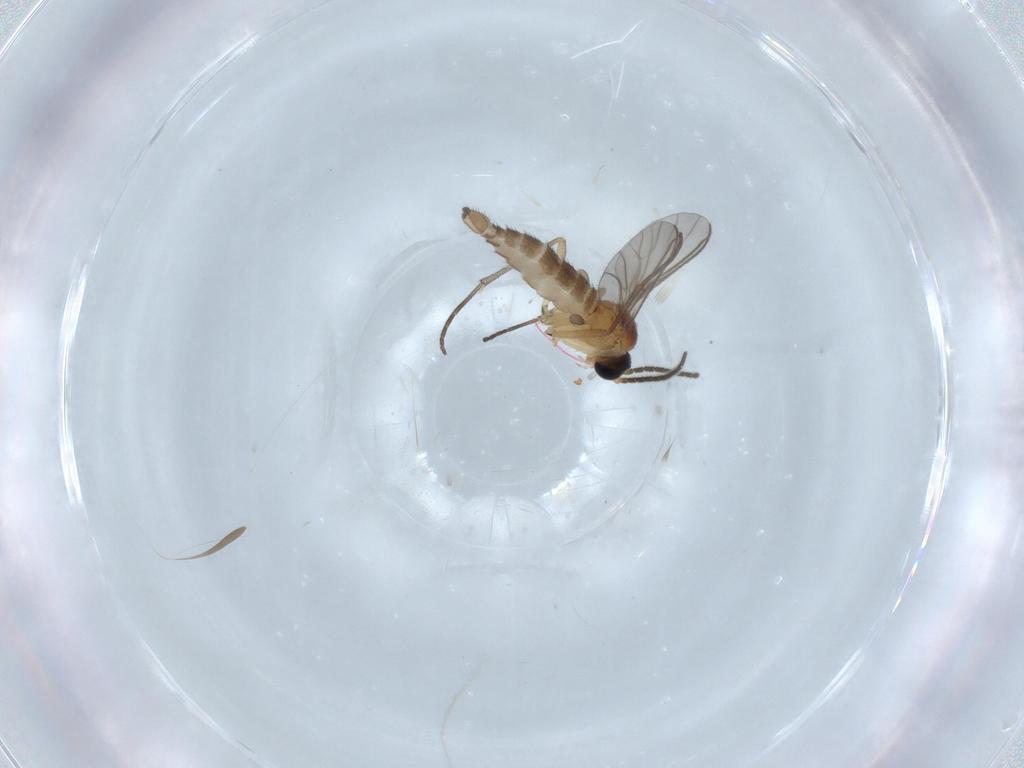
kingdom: Animalia
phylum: Arthropoda
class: Insecta
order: Diptera
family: Sciaridae
